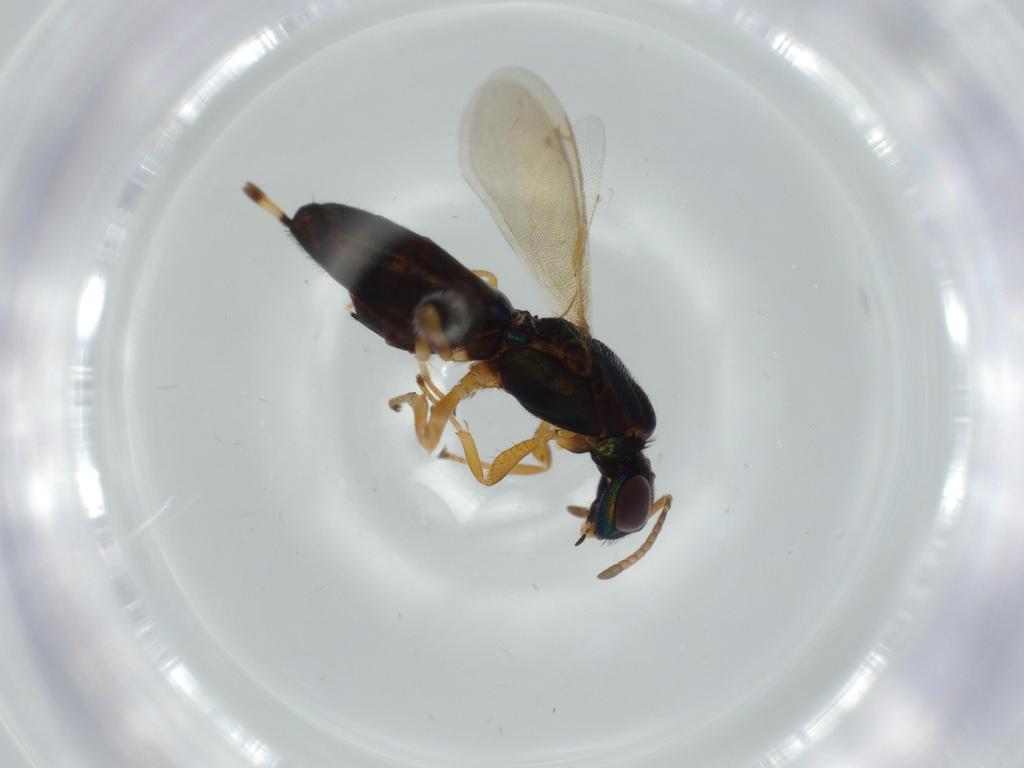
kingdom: Animalia
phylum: Arthropoda
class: Insecta
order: Hymenoptera
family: Eupelmidae
